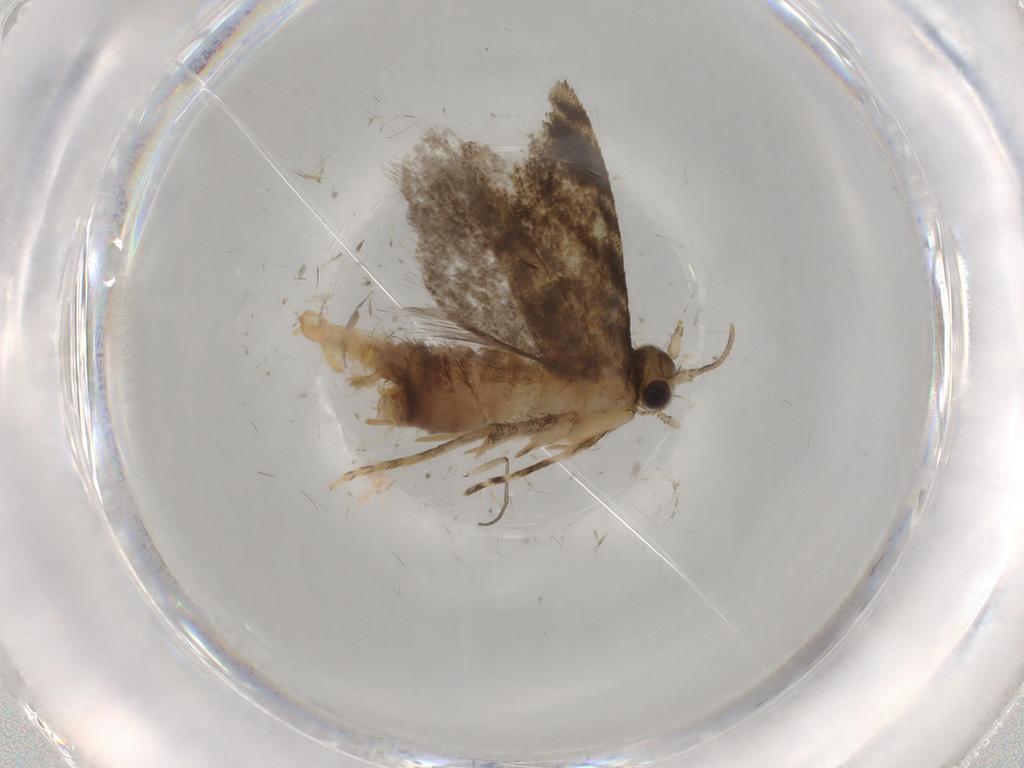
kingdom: Animalia
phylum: Arthropoda
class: Insecta
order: Lepidoptera
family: Tineidae
